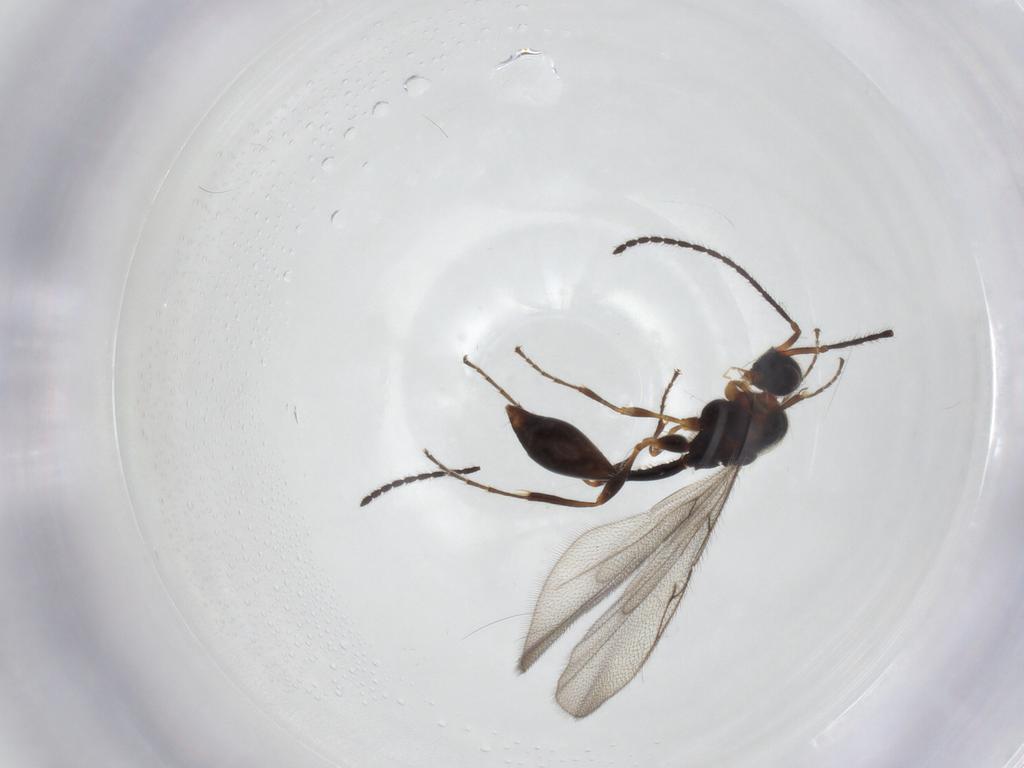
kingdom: Animalia
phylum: Arthropoda
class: Insecta
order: Hymenoptera
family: Diapriidae
